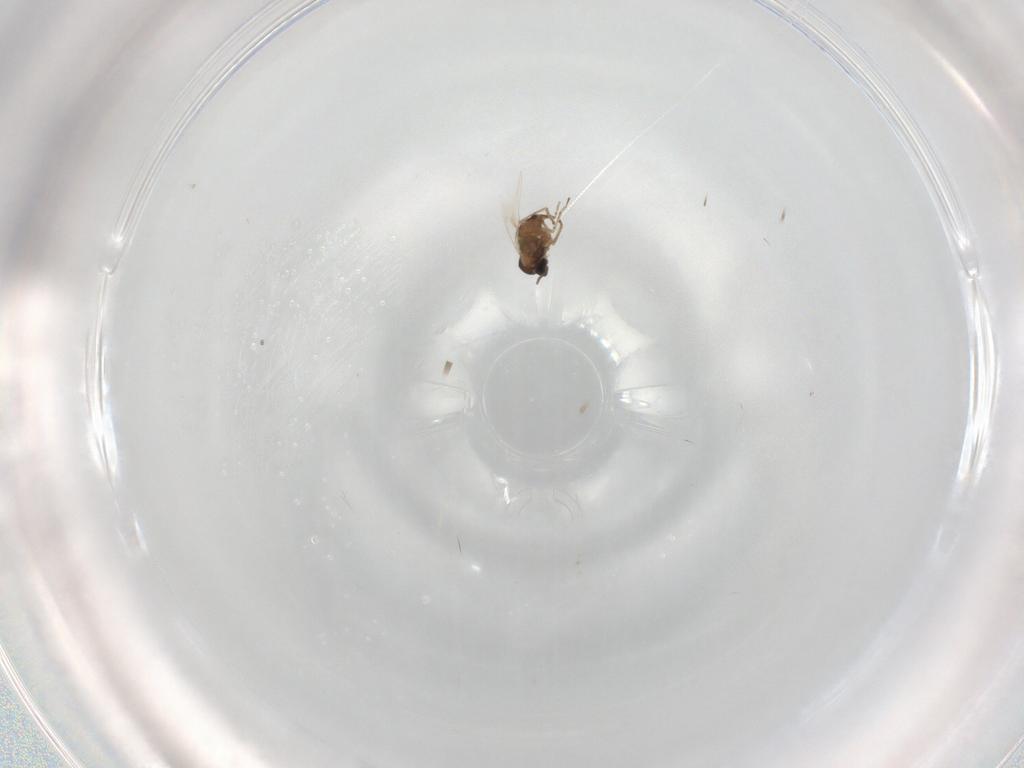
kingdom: Animalia
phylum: Arthropoda
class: Insecta
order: Diptera
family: Cecidomyiidae
